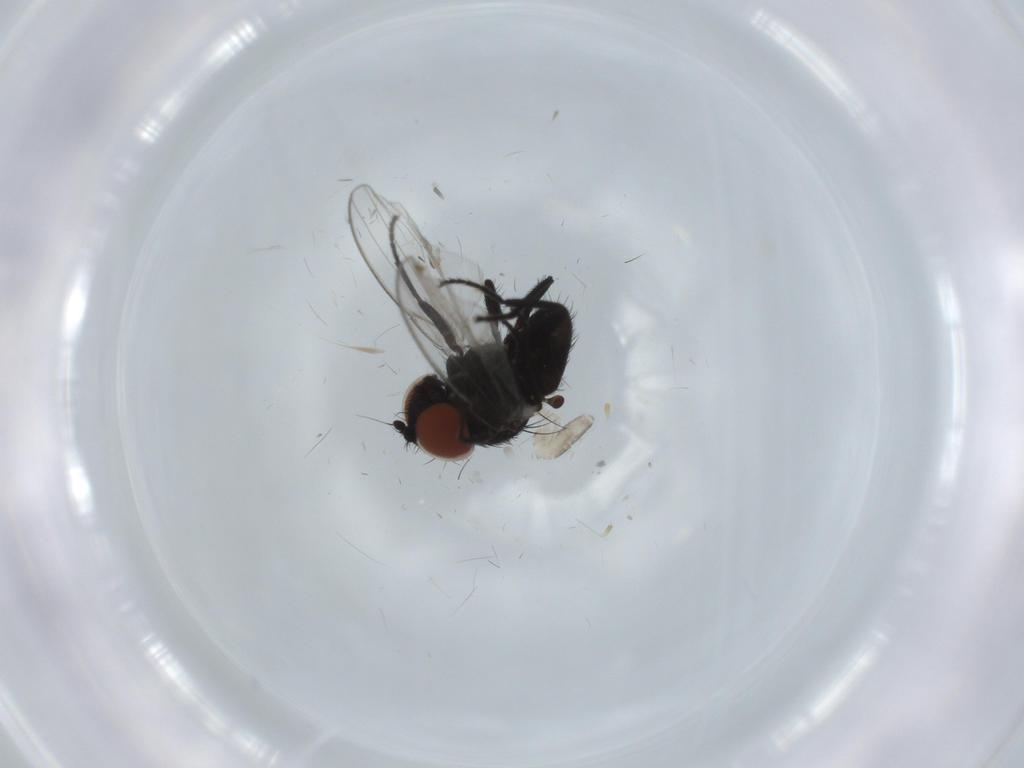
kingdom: Animalia
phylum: Arthropoda
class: Insecta
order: Diptera
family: Milichiidae
